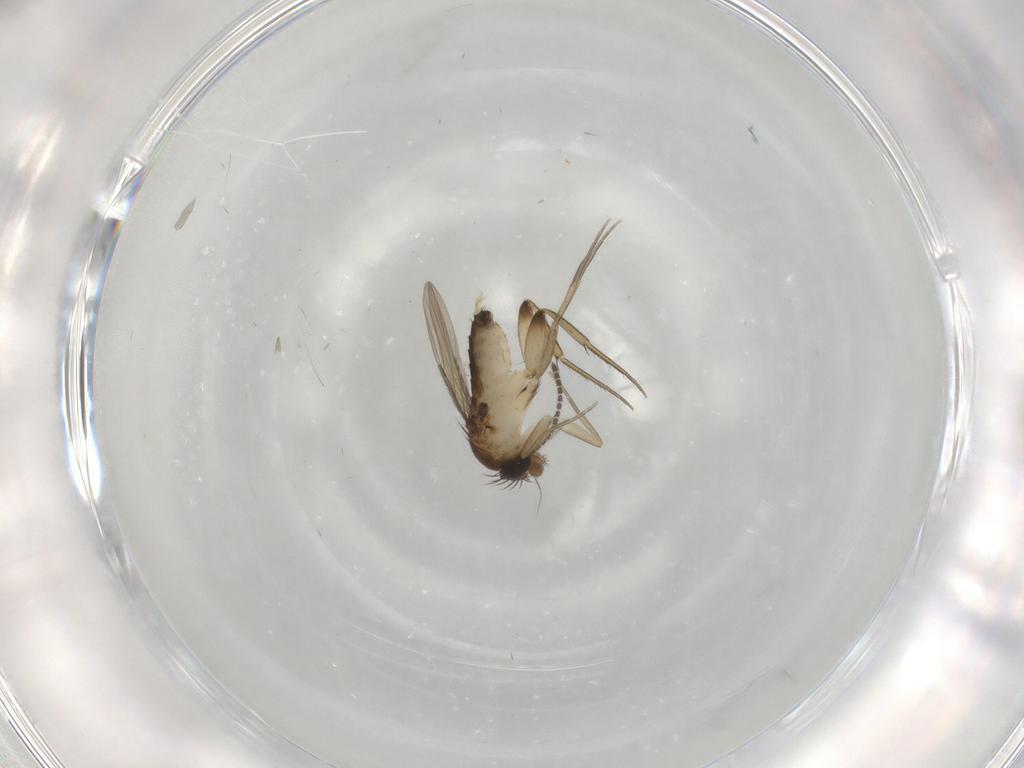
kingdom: Animalia
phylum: Arthropoda
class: Insecta
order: Diptera
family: Phoridae
